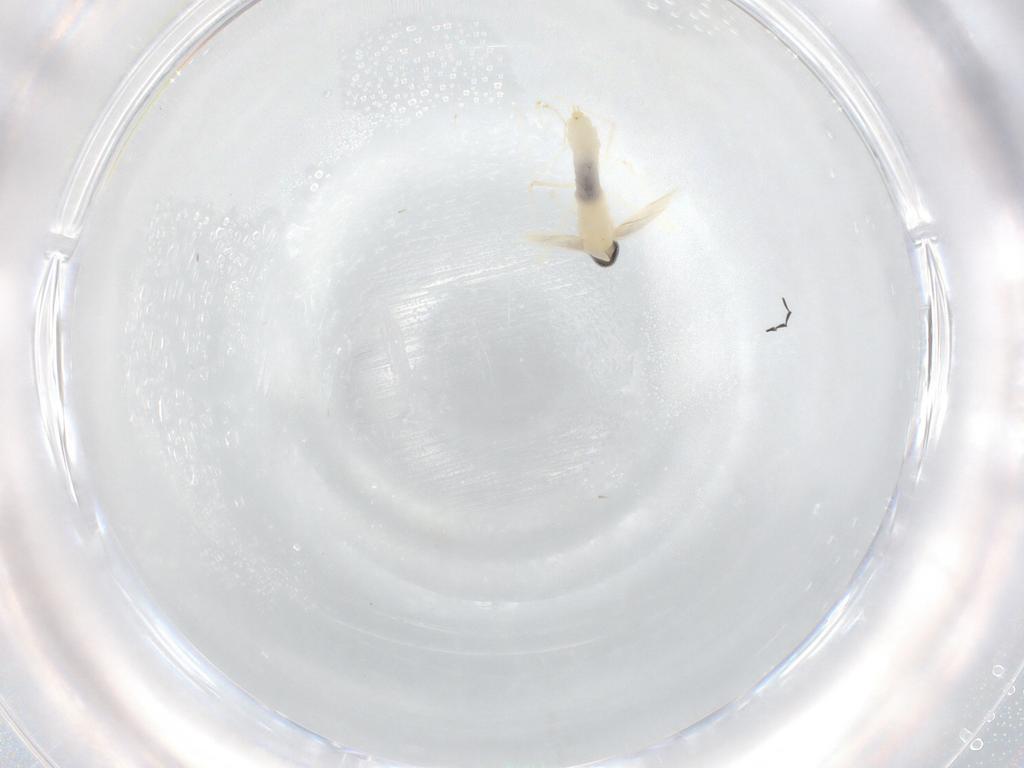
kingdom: Animalia
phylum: Arthropoda
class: Insecta
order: Diptera
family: Cecidomyiidae
